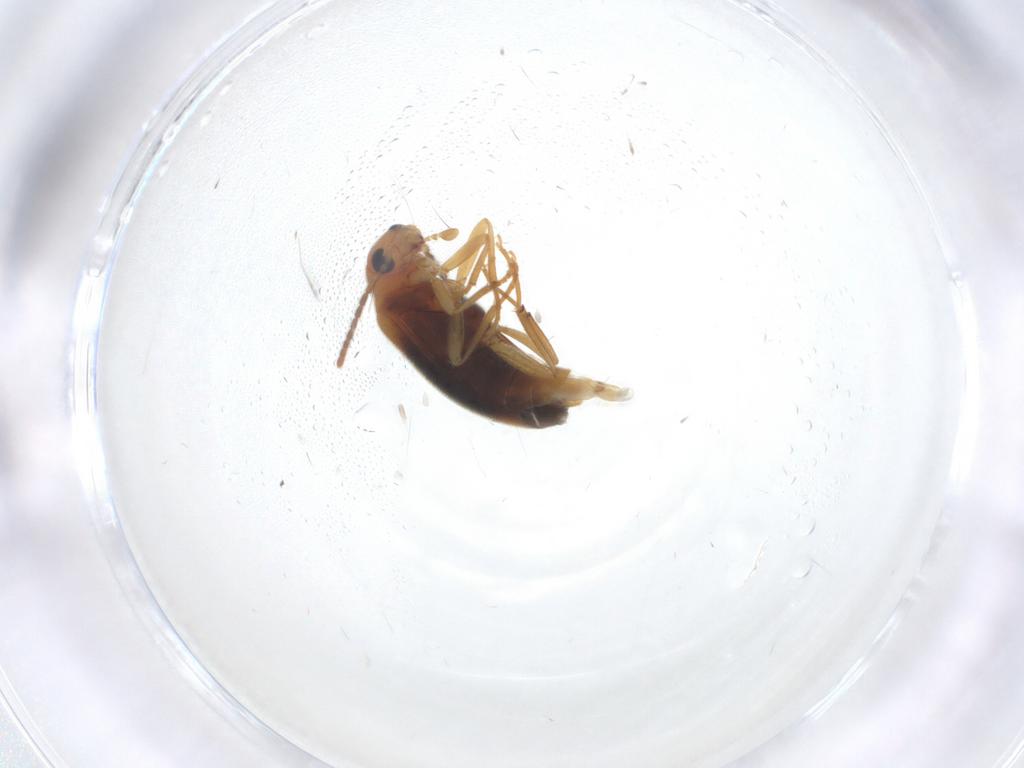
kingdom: Animalia
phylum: Arthropoda
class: Insecta
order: Coleoptera
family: Melandryidae
